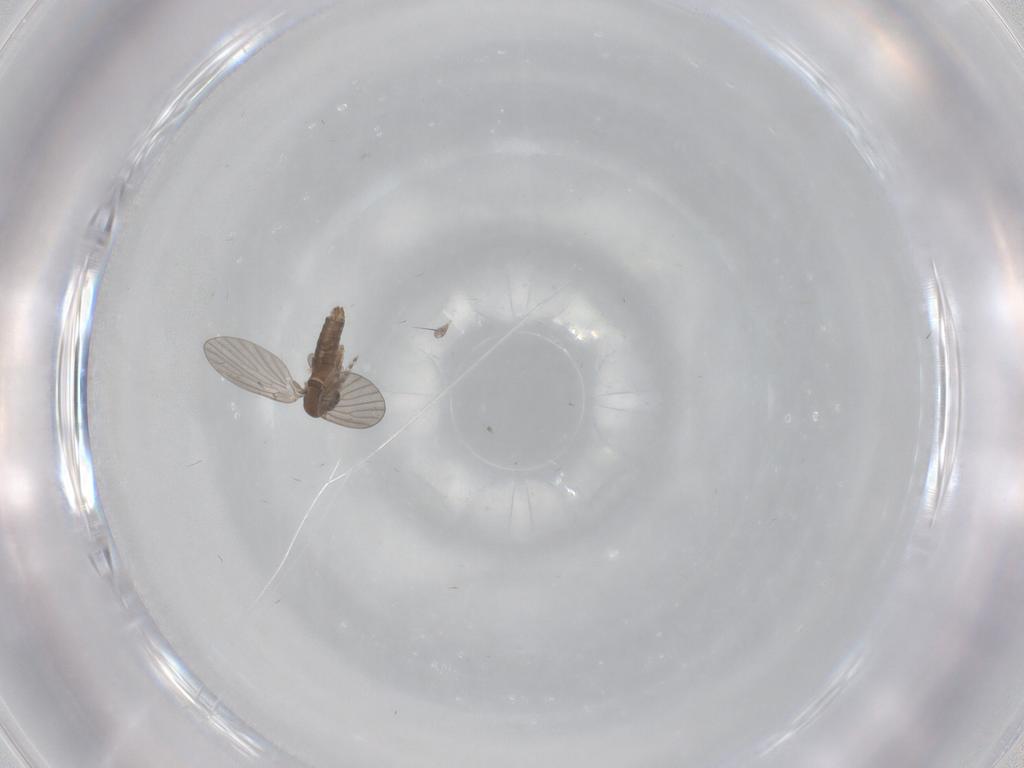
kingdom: Animalia
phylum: Arthropoda
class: Insecta
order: Diptera
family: Psychodidae
